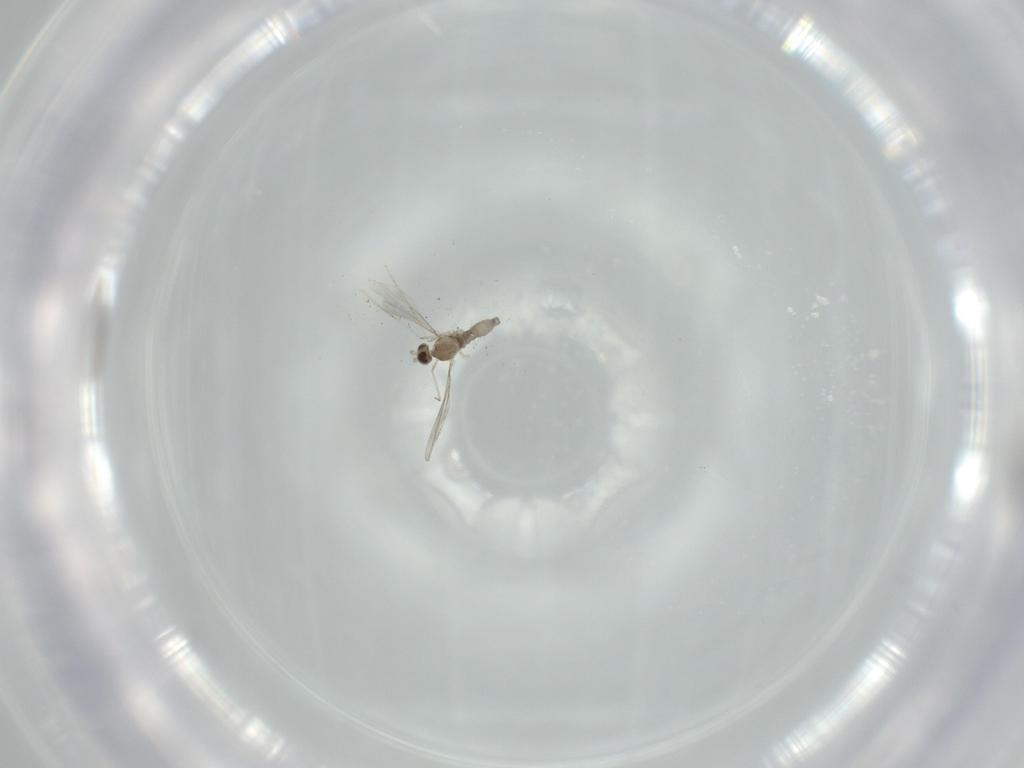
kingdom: Animalia
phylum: Arthropoda
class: Insecta
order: Diptera
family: Cecidomyiidae
